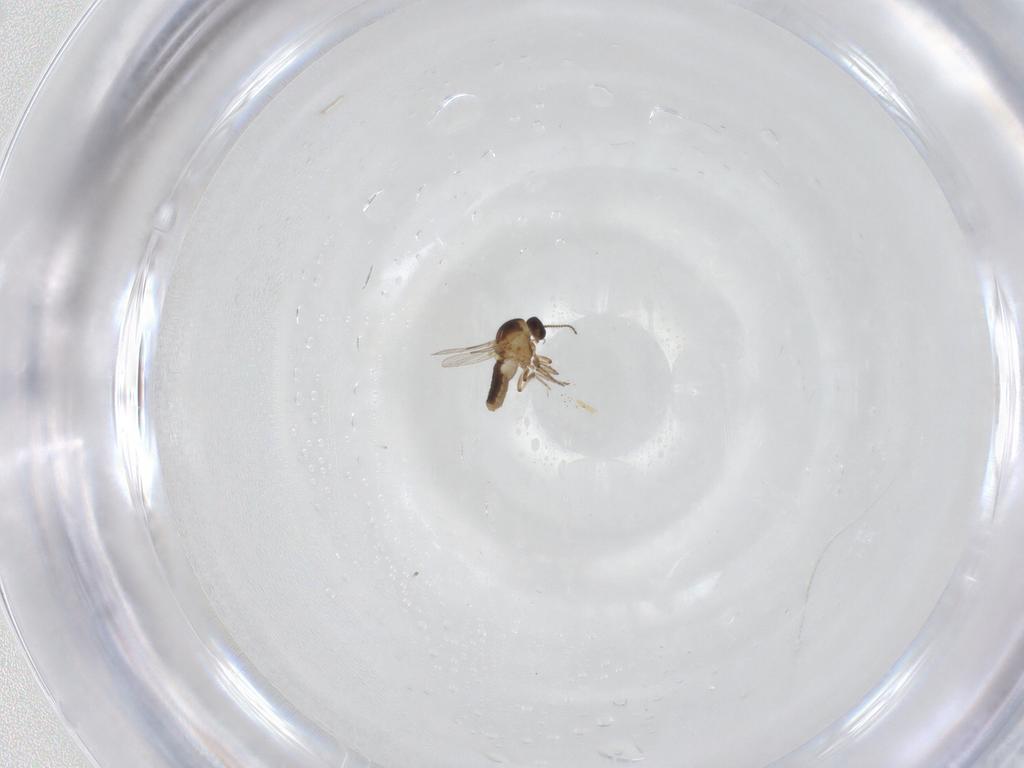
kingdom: Animalia
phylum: Arthropoda
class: Insecta
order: Diptera
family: Ceratopogonidae
